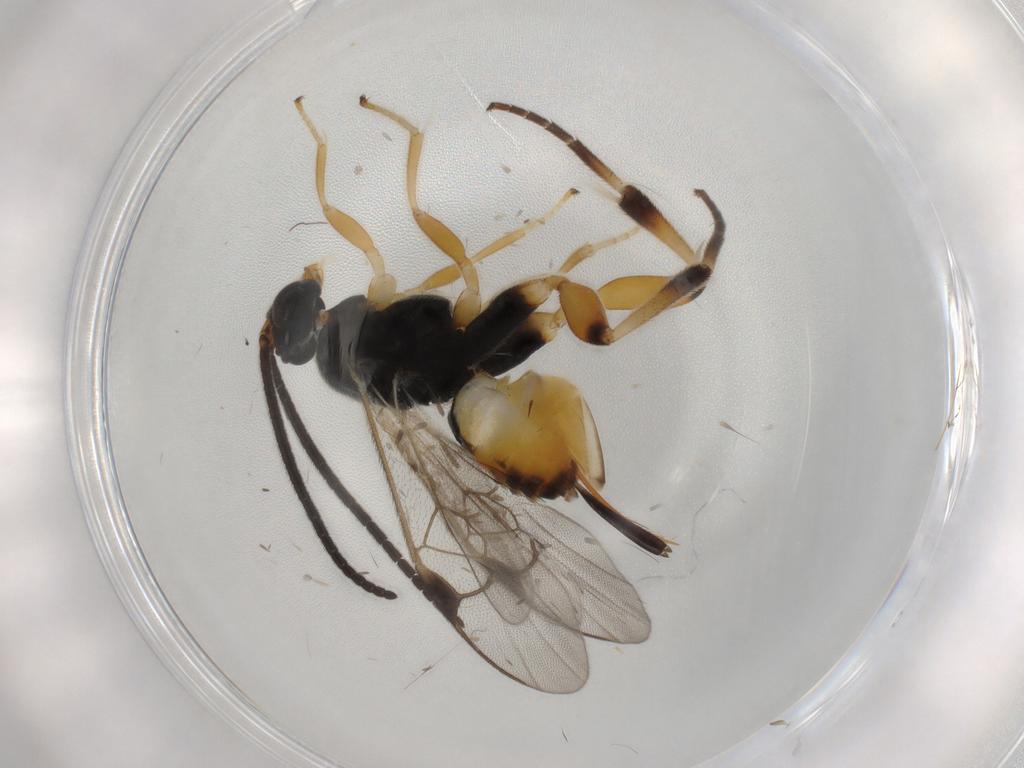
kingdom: Animalia
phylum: Arthropoda
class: Insecta
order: Hymenoptera
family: Braconidae
